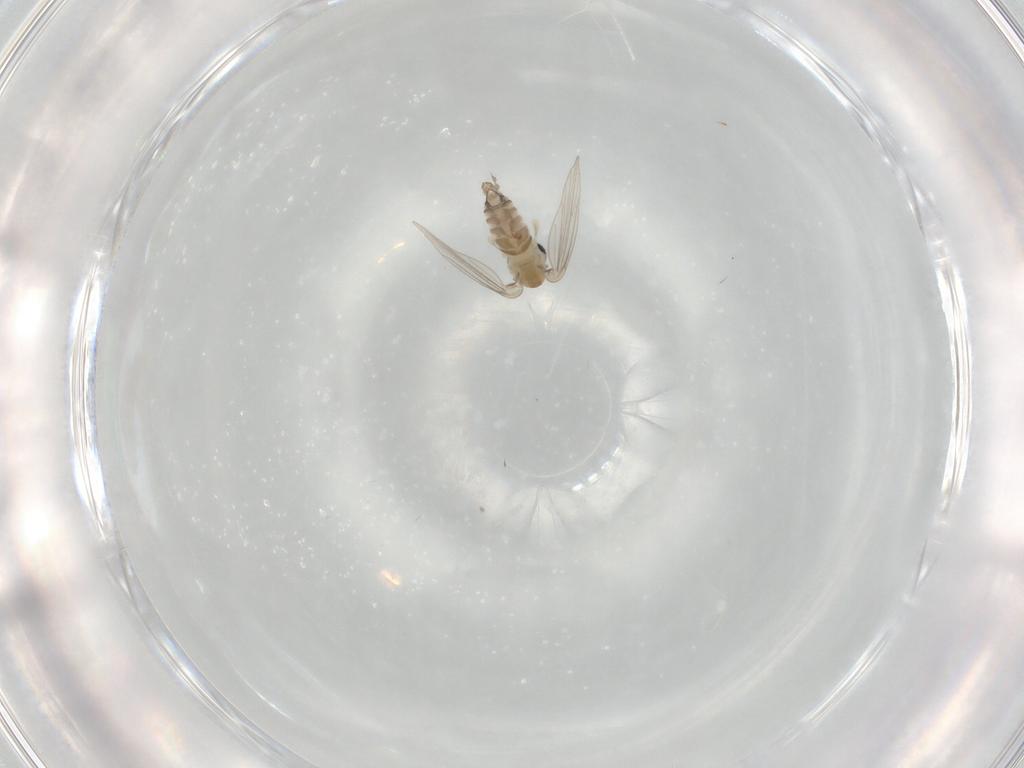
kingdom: Animalia
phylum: Arthropoda
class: Insecta
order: Diptera
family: Psychodidae
